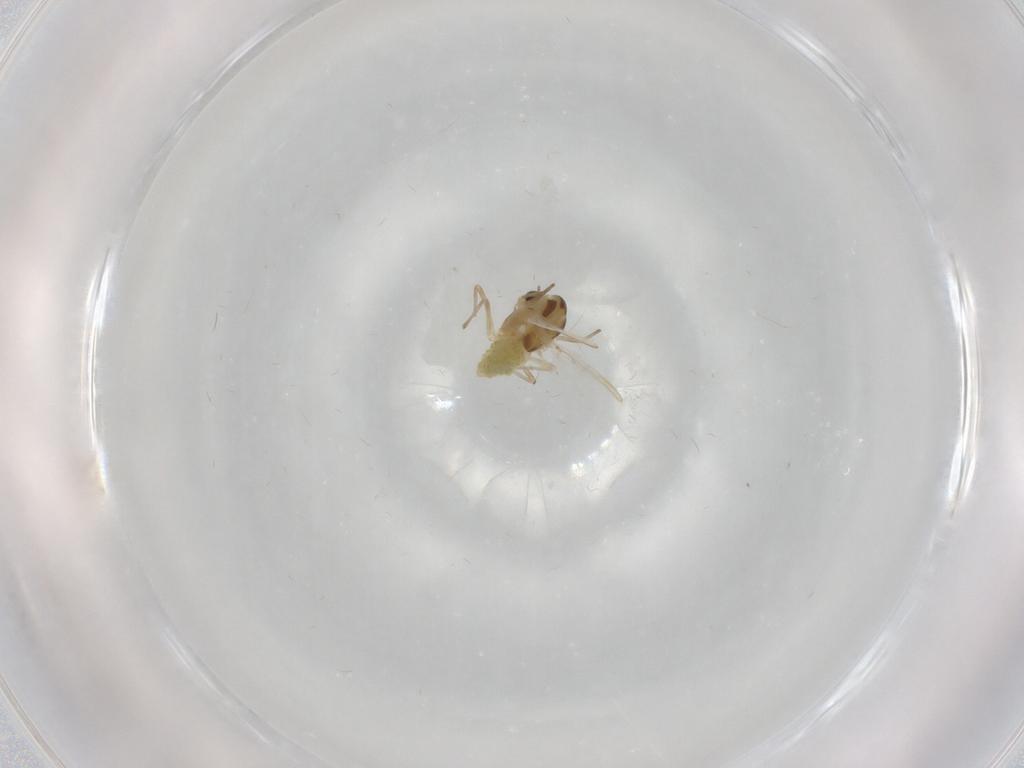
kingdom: Animalia
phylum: Arthropoda
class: Insecta
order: Diptera
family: Chironomidae
